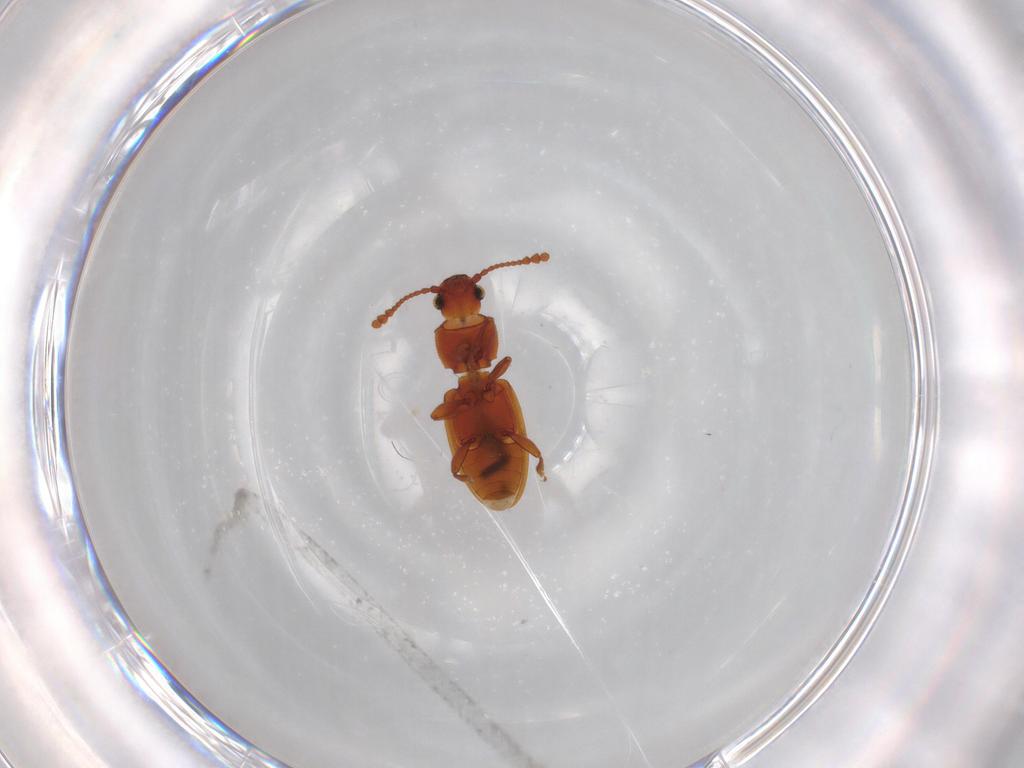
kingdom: Animalia
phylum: Arthropoda
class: Insecta
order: Coleoptera
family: Silvanidae
